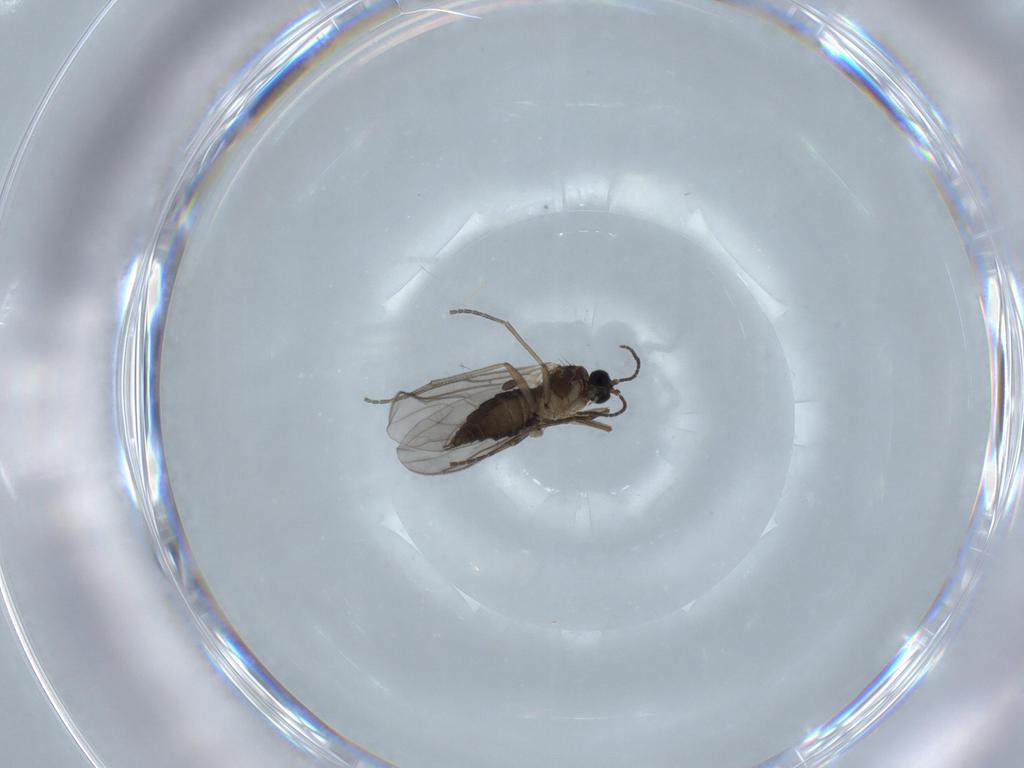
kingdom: Animalia
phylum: Arthropoda
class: Insecta
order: Diptera
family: Sciaridae
